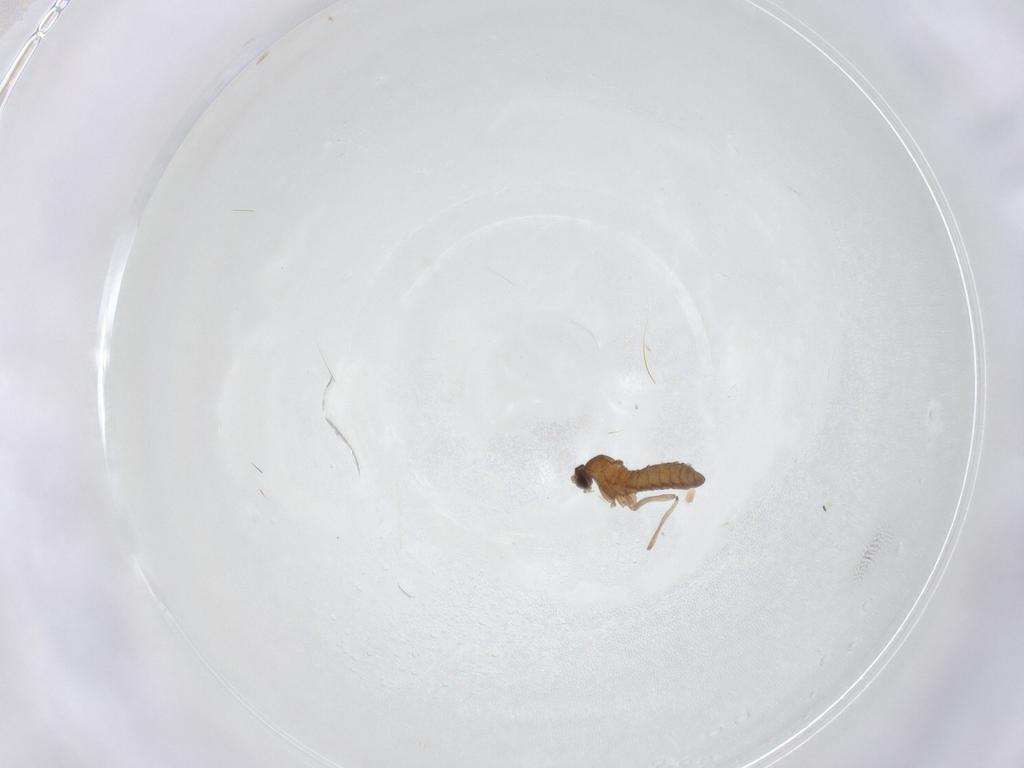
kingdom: Animalia
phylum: Arthropoda
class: Insecta
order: Diptera
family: Cecidomyiidae
